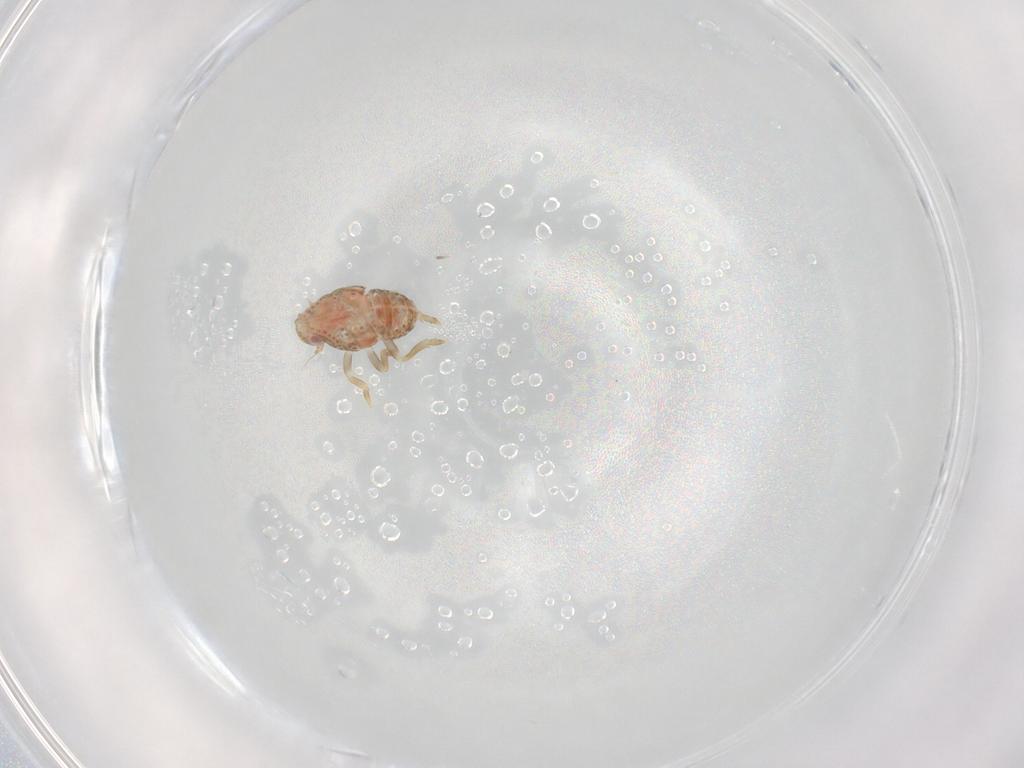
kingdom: Animalia
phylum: Arthropoda
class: Insecta
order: Hemiptera
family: Flatidae
